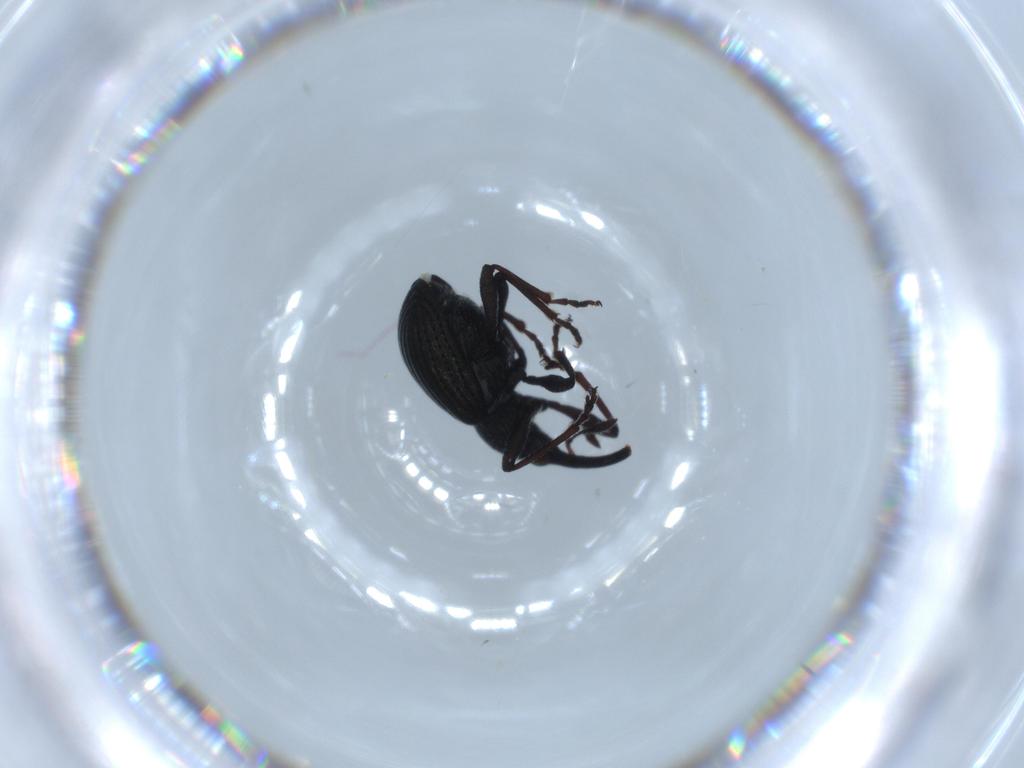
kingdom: Animalia
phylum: Arthropoda
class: Insecta
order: Coleoptera
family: Brentidae
